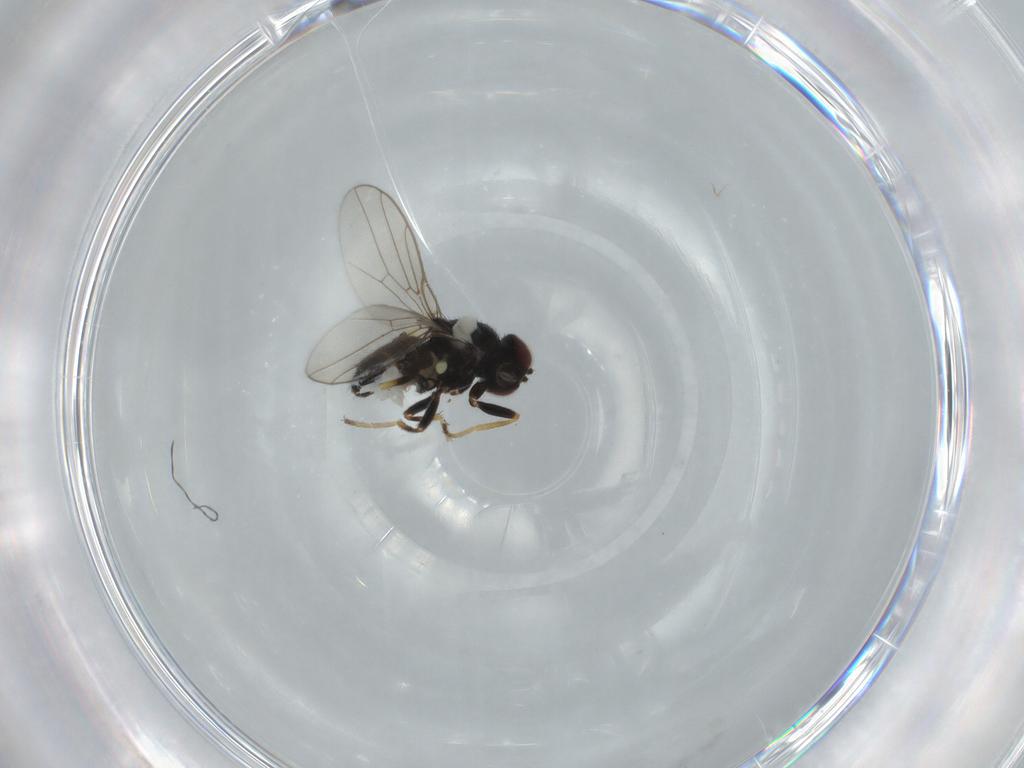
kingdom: Animalia
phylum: Arthropoda
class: Insecta
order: Diptera
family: Chloropidae
